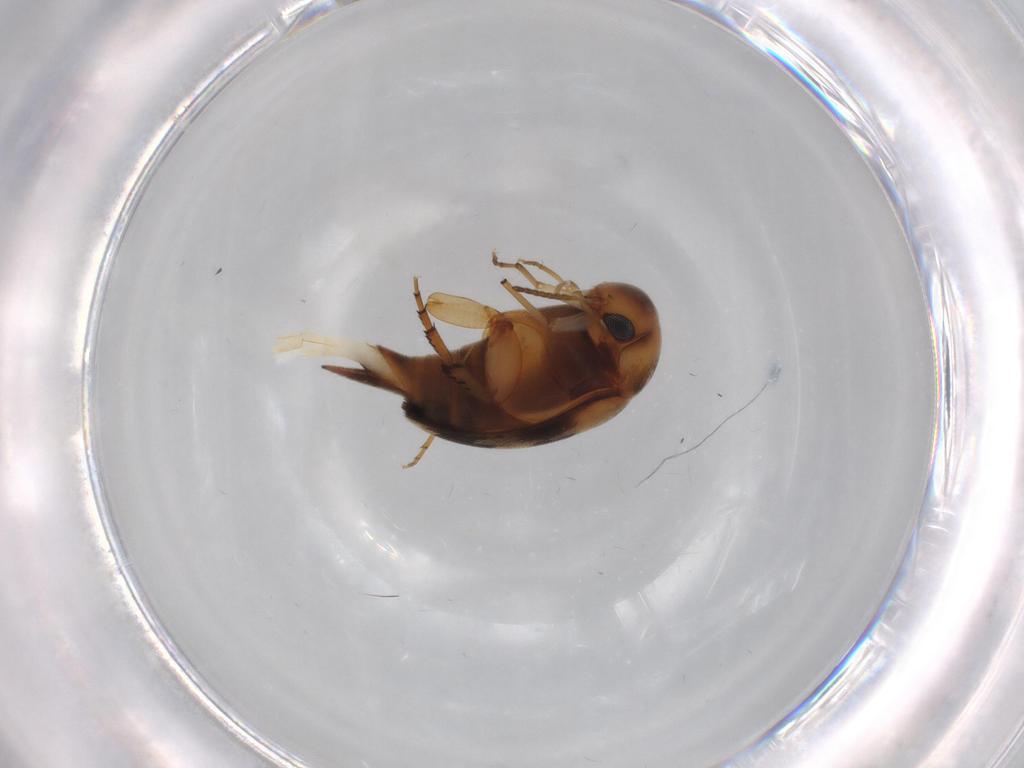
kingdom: Animalia
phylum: Arthropoda
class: Insecta
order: Coleoptera
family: Mordellidae
